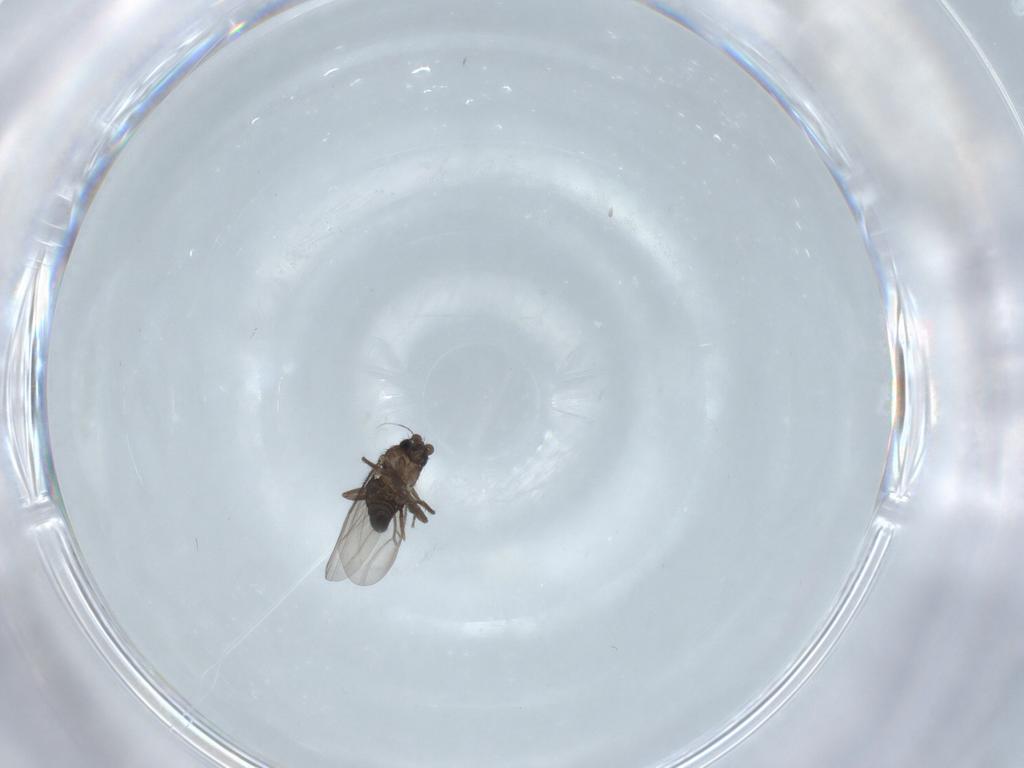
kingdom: Animalia
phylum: Arthropoda
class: Insecta
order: Diptera
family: Phoridae
